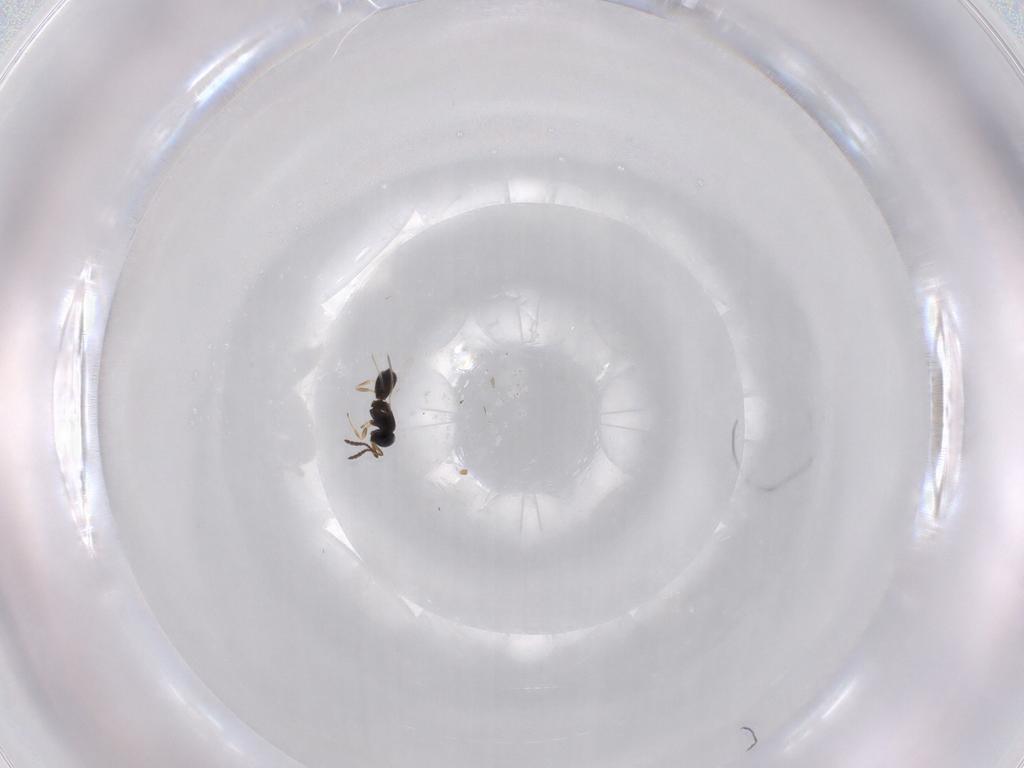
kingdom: Animalia
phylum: Arthropoda
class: Insecta
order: Hymenoptera
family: Scelionidae
